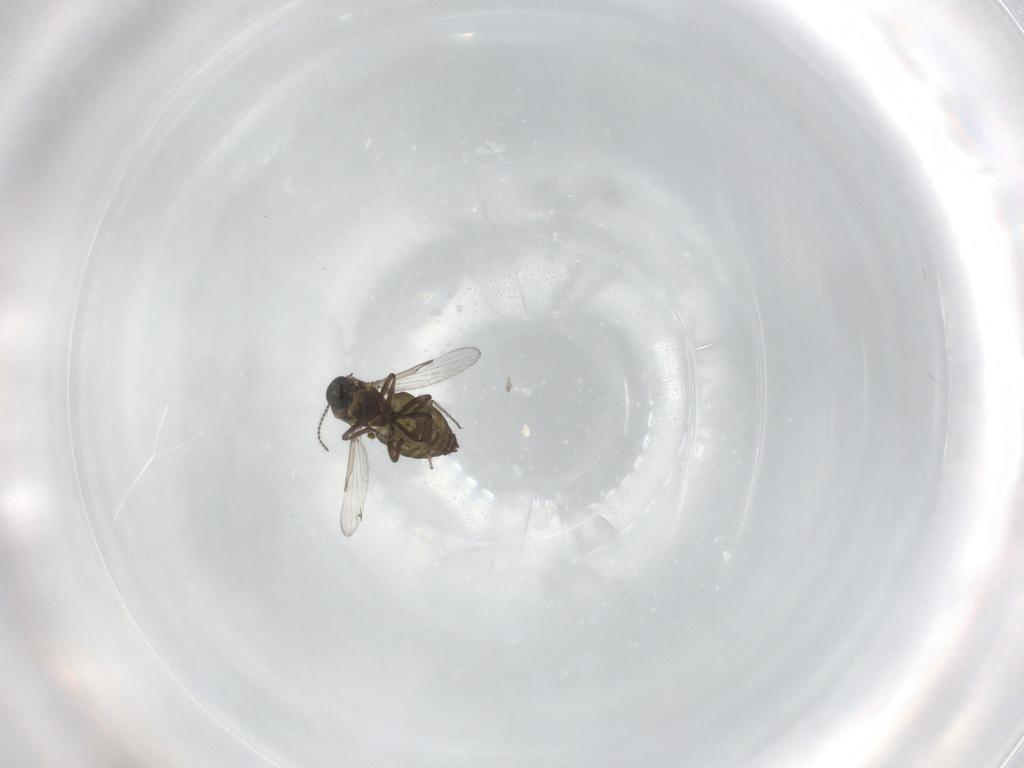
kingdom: Animalia
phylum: Arthropoda
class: Insecta
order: Diptera
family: Ceratopogonidae
